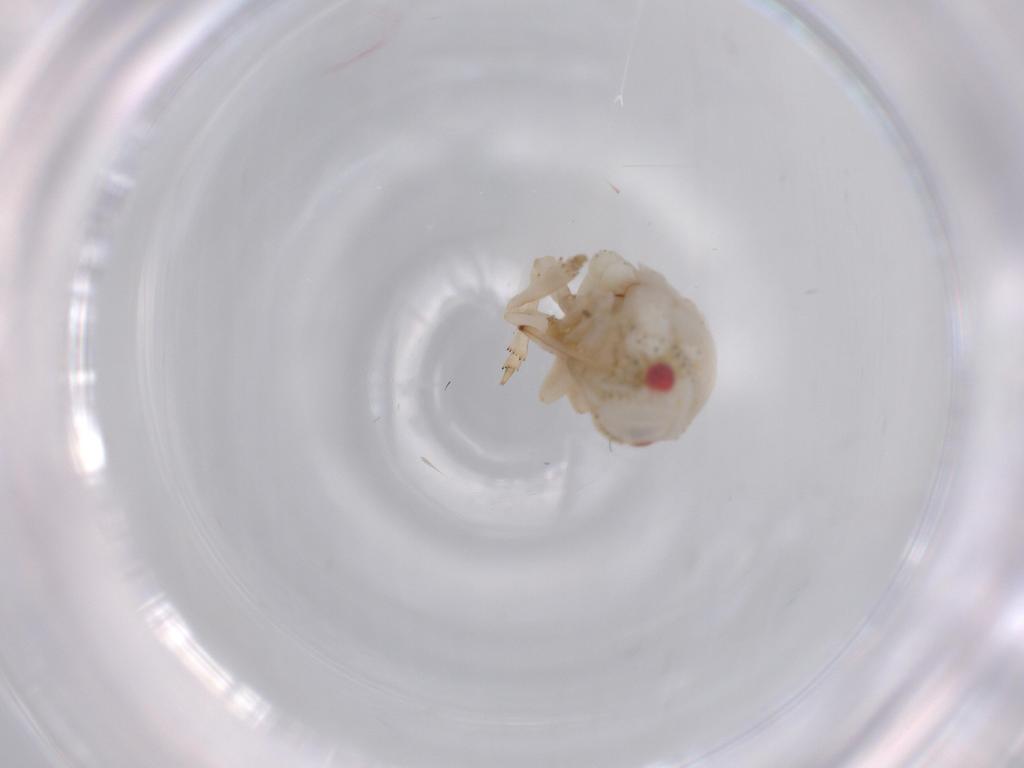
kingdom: Animalia
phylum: Arthropoda
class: Insecta
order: Hemiptera
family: Acanaloniidae
